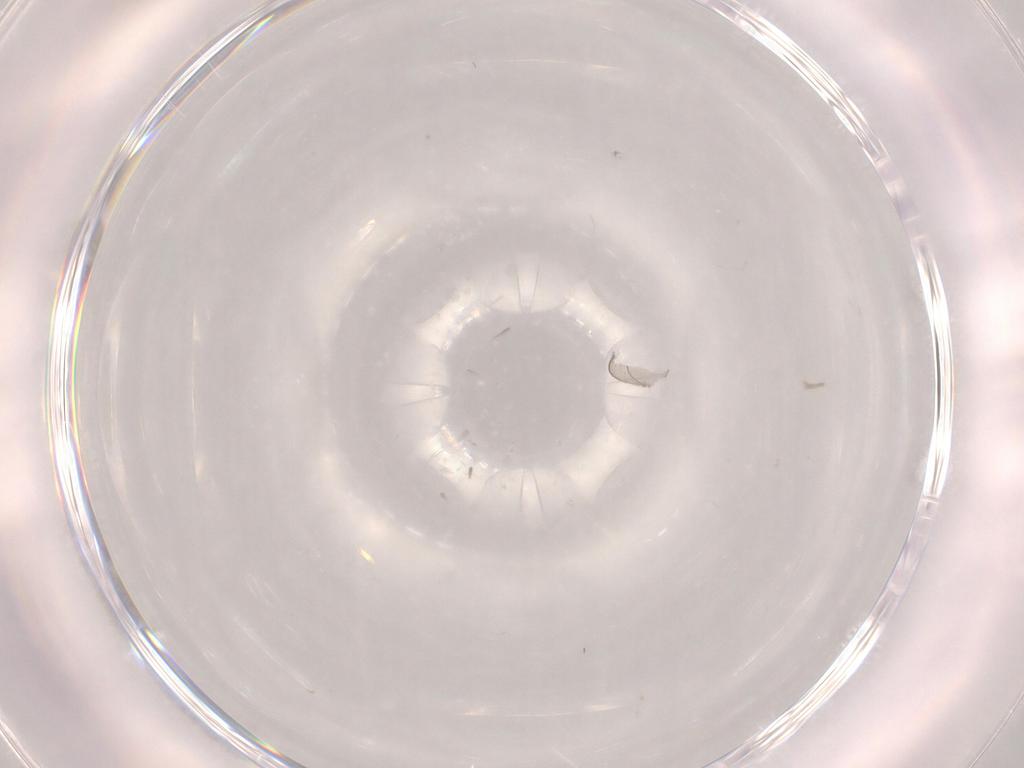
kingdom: Animalia
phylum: Arthropoda
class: Insecta
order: Diptera
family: Cecidomyiidae
